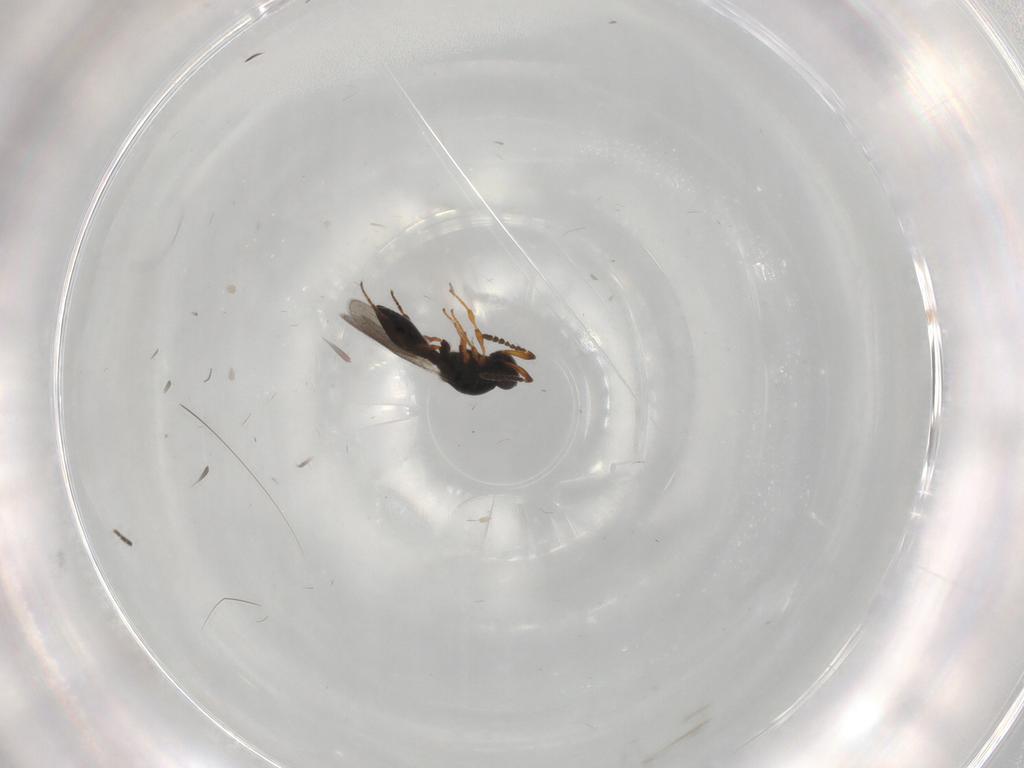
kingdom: Animalia
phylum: Arthropoda
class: Insecta
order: Hymenoptera
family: Platygastridae
